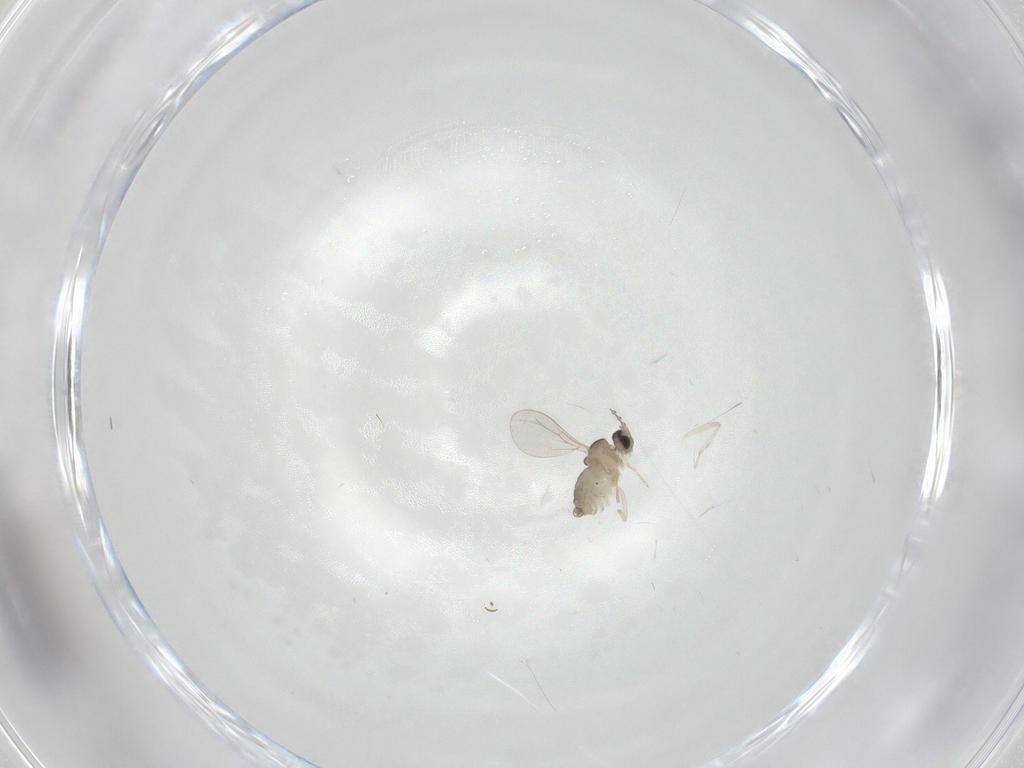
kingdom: Animalia
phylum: Arthropoda
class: Insecta
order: Diptera
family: Cecidomyiidae
